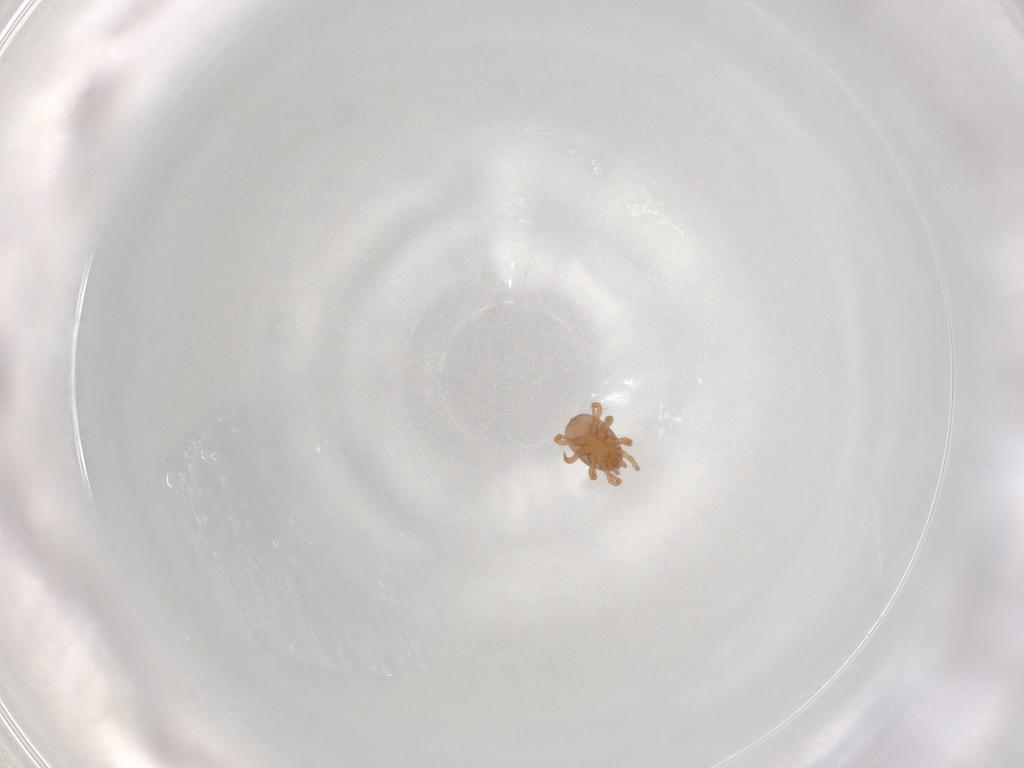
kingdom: Animalia
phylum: Arthropoda
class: Arachnida
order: Mesostigmata
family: Eviphididae
